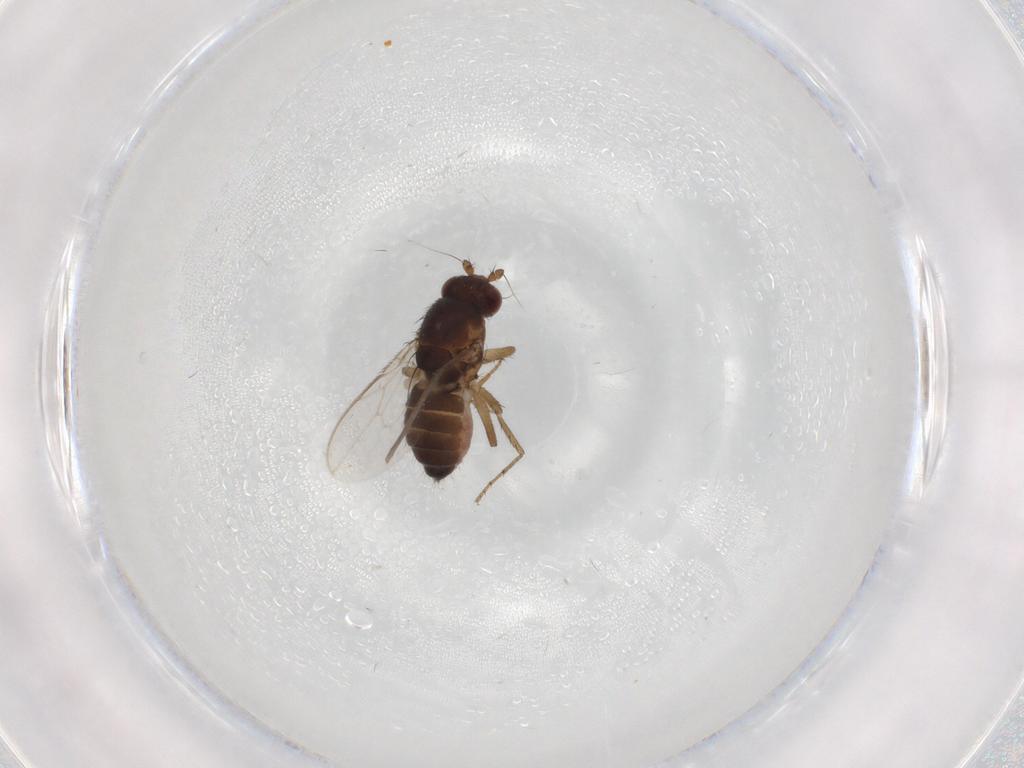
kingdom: Animalia
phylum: Arthropoda
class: Insecta
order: Diptera
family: Sphaeroceridae
